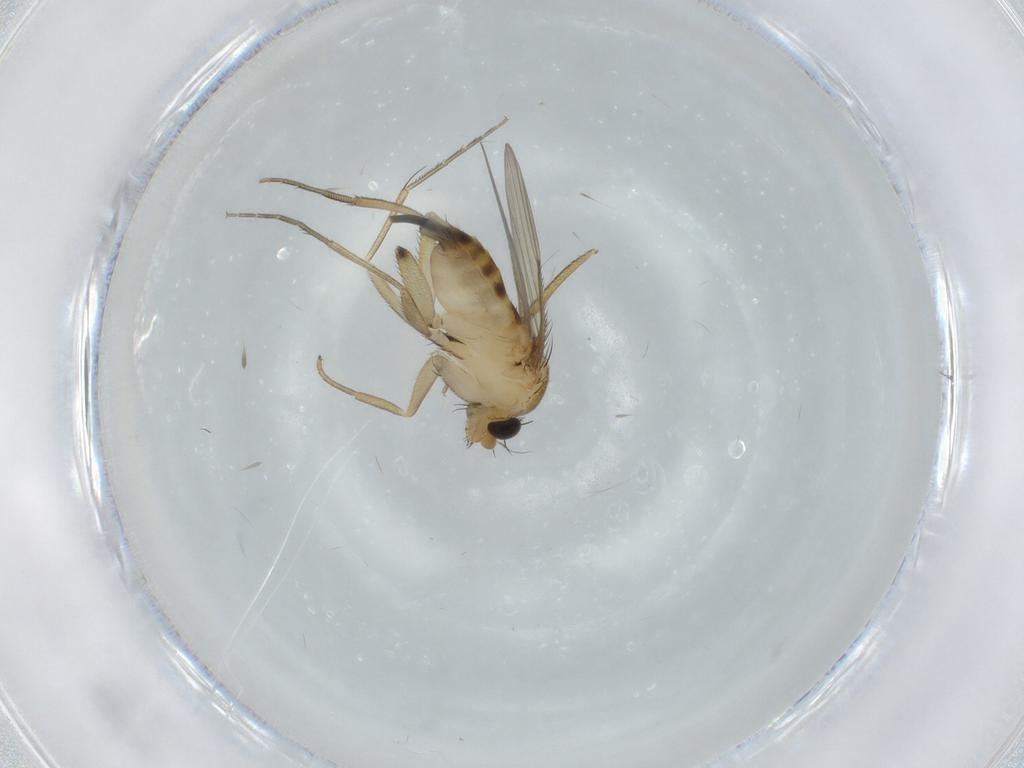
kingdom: Animalia
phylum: Arthropoda
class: Insecta
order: Diptera
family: Phoridae
